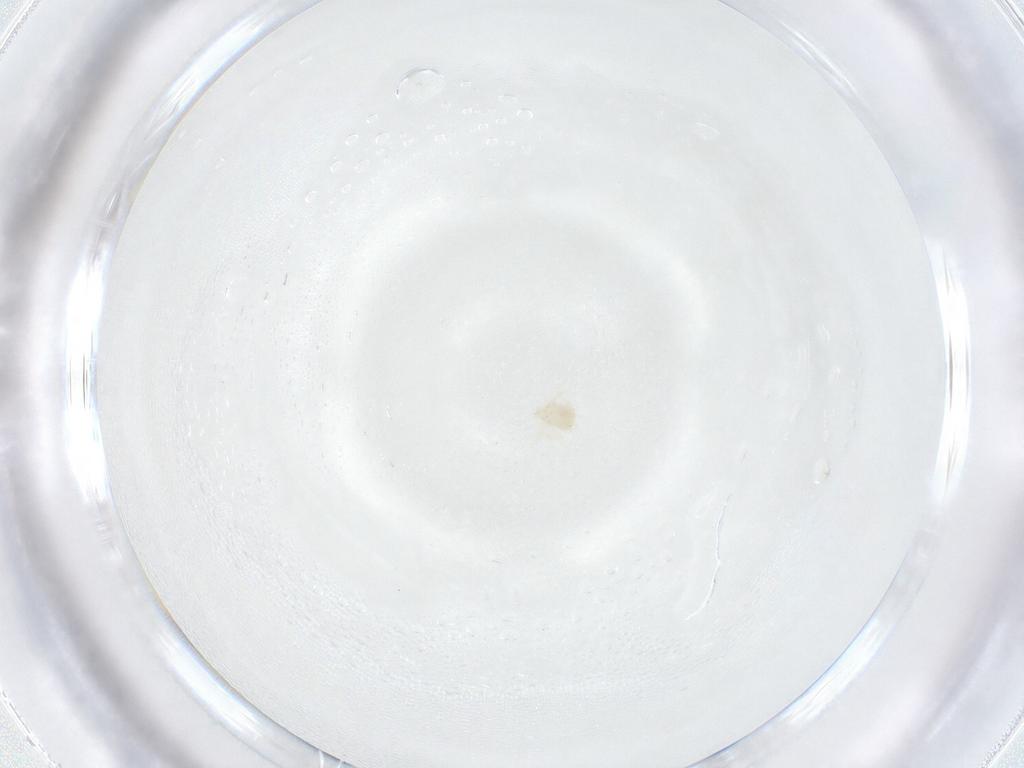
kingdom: Animalia
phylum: Arthropoda
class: Arachnida
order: Trombidiformes
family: Anystidae
